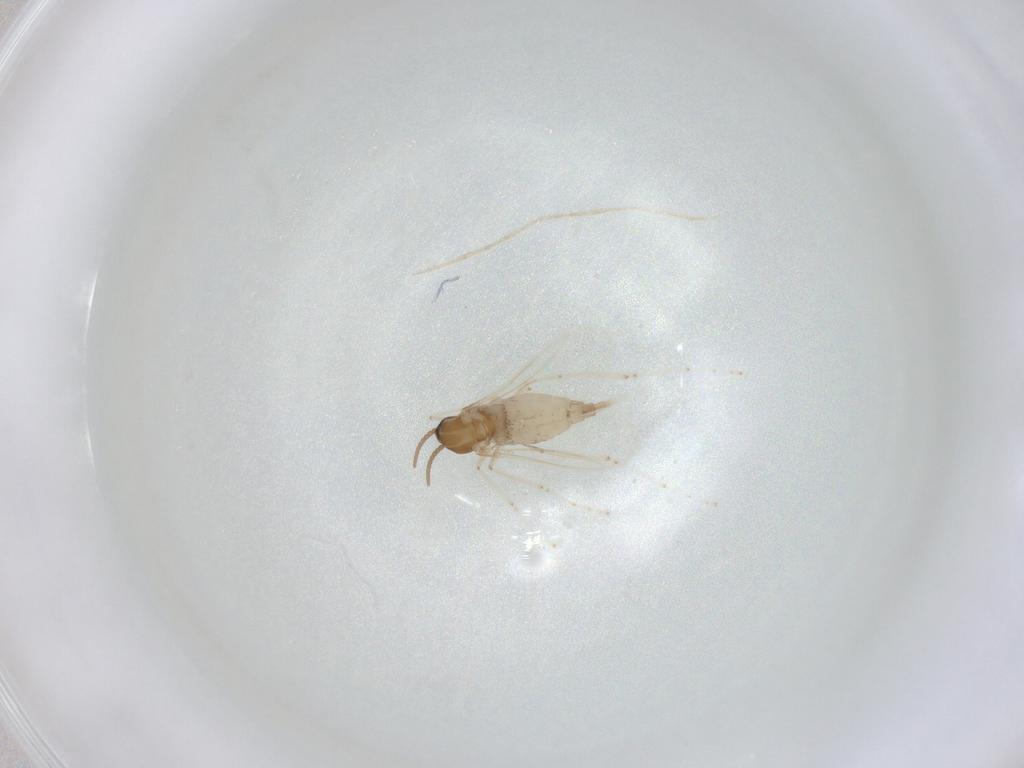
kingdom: Animalia
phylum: Arthropoda
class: Insecta
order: Diptera
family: Cecidomyiidae
